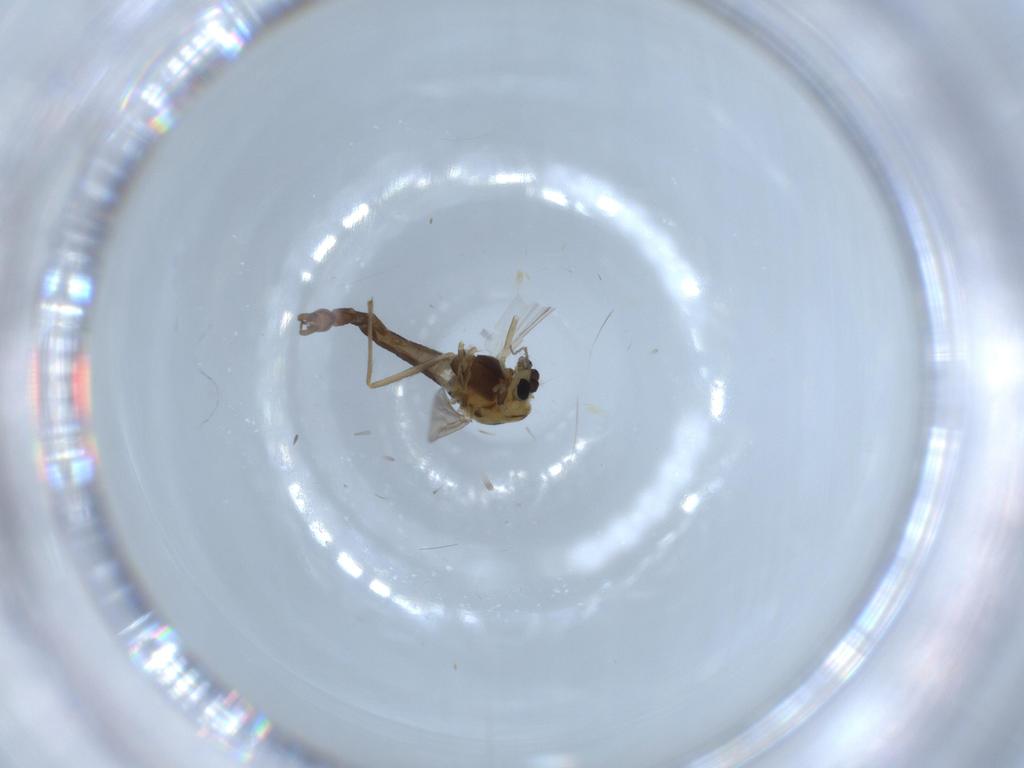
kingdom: Animalia
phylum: Arthropoda
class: Insecta
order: Diptera
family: Chironomidae
